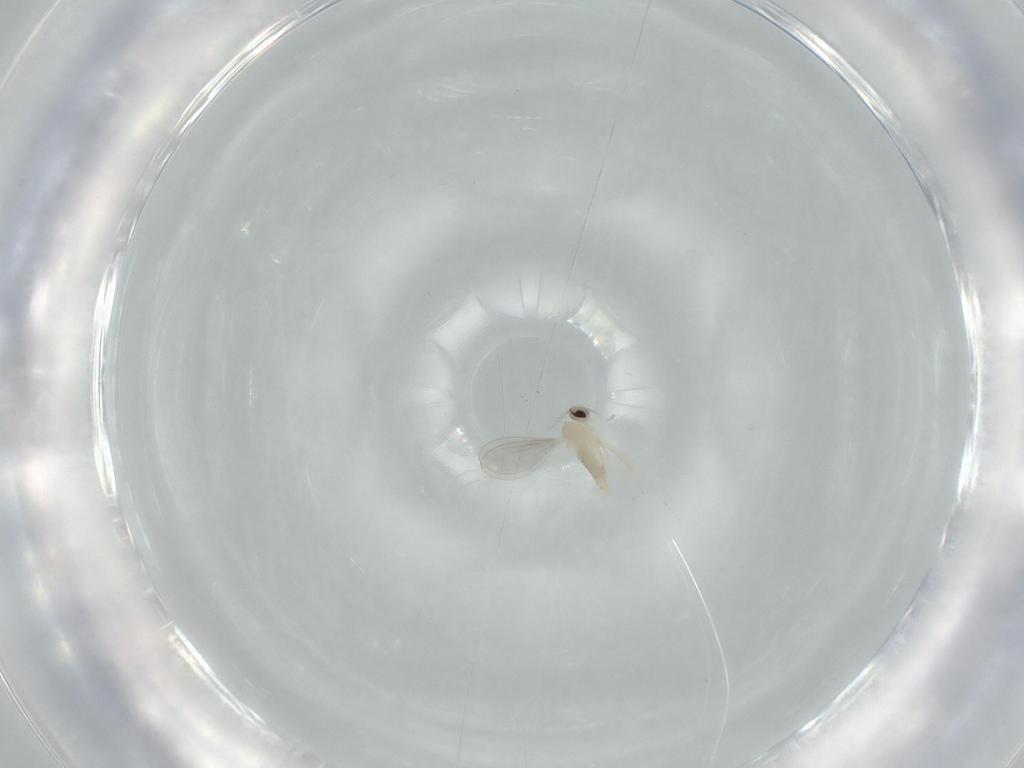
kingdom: Animalia
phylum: Arthropoda
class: Insecta
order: Diptera
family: Cecidomyiidae
